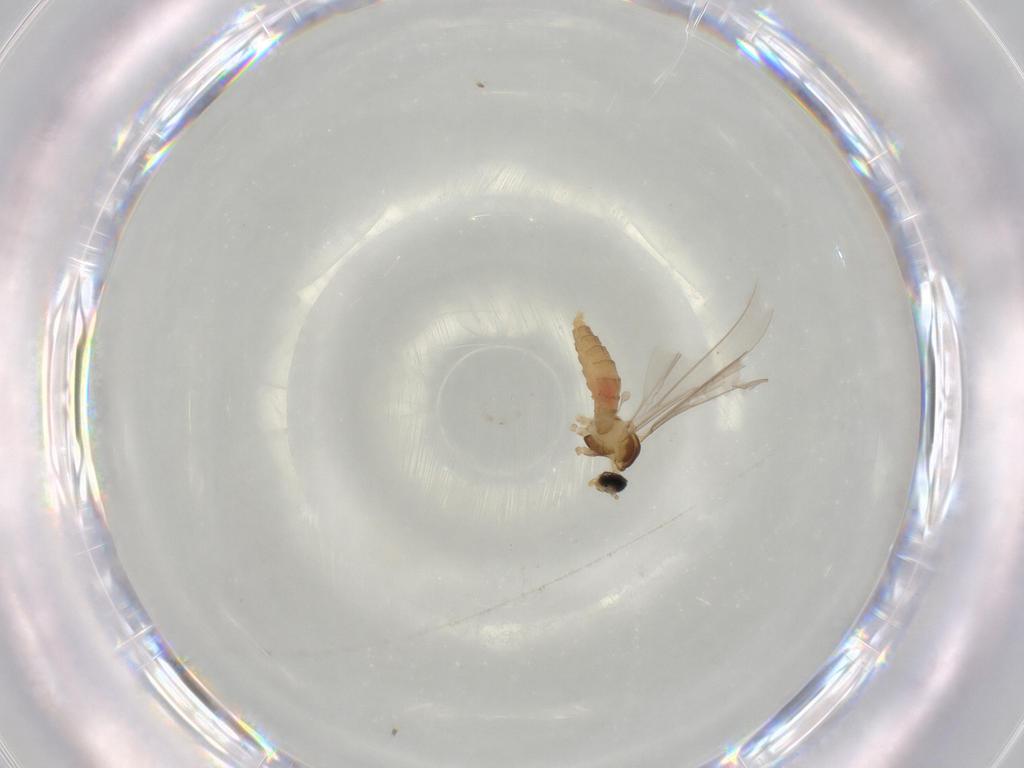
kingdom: Animalia
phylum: Arthropoda
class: Insecta
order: Diptera
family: Cecidomyiidae
